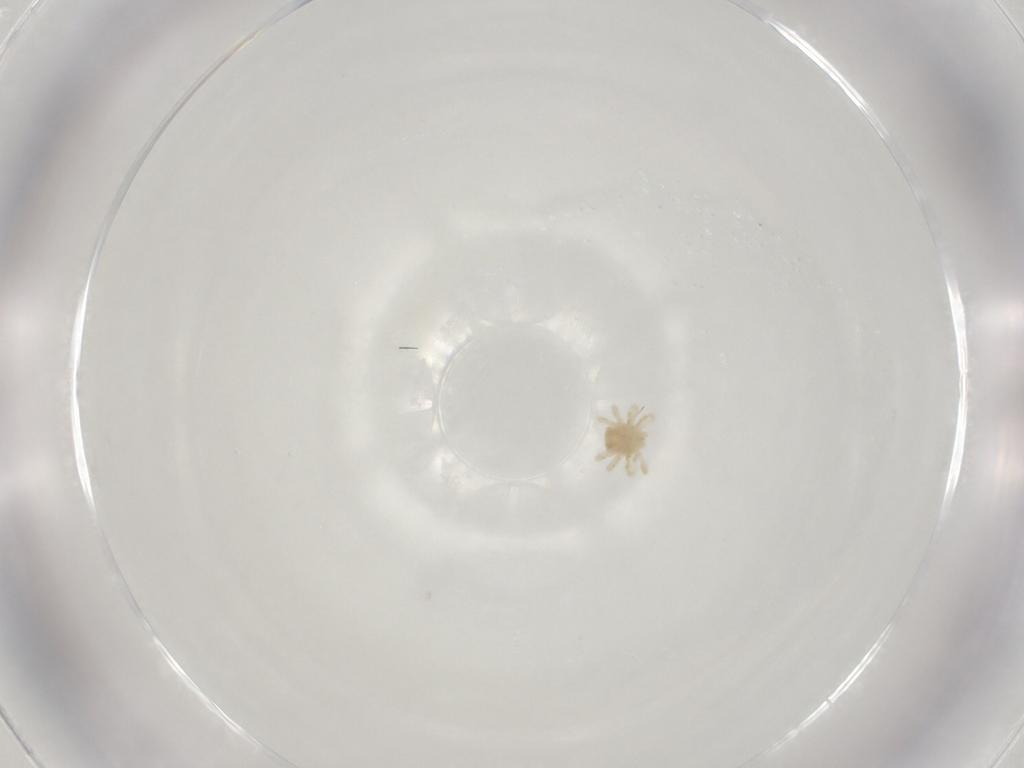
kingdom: Animalia
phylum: Arthropoda
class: Arachnida
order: Trombidiformes
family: Anystidae
